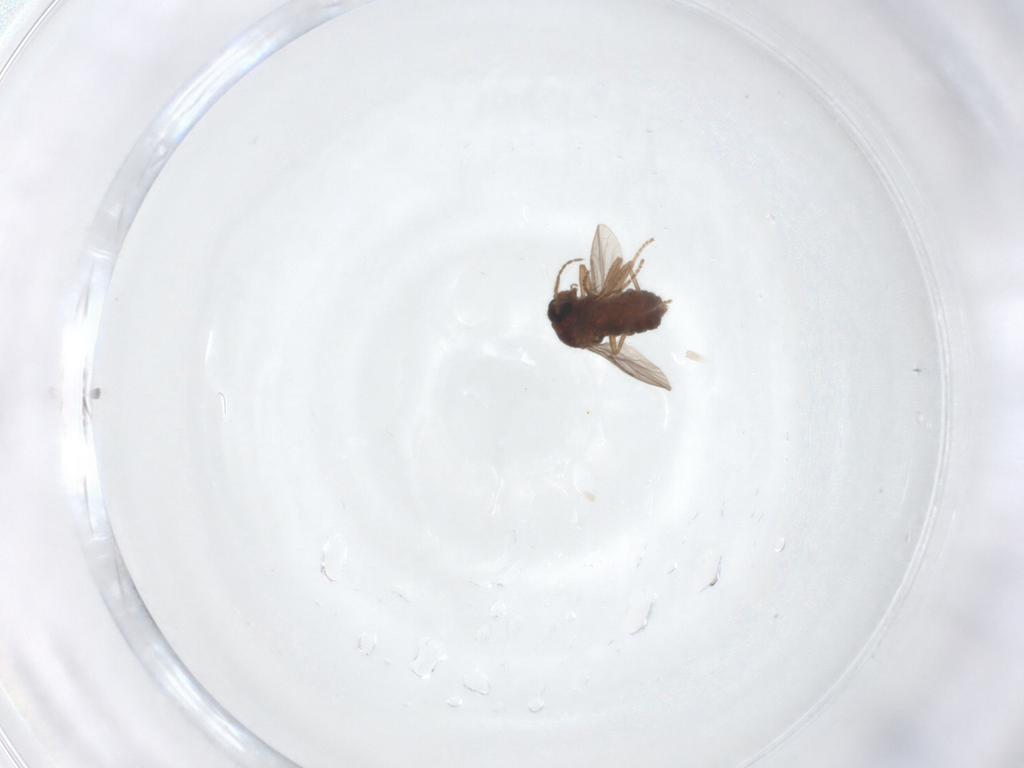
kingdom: Animalia
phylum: Arthropoda
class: Insecta
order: Diptera
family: Ceratopogonidae
